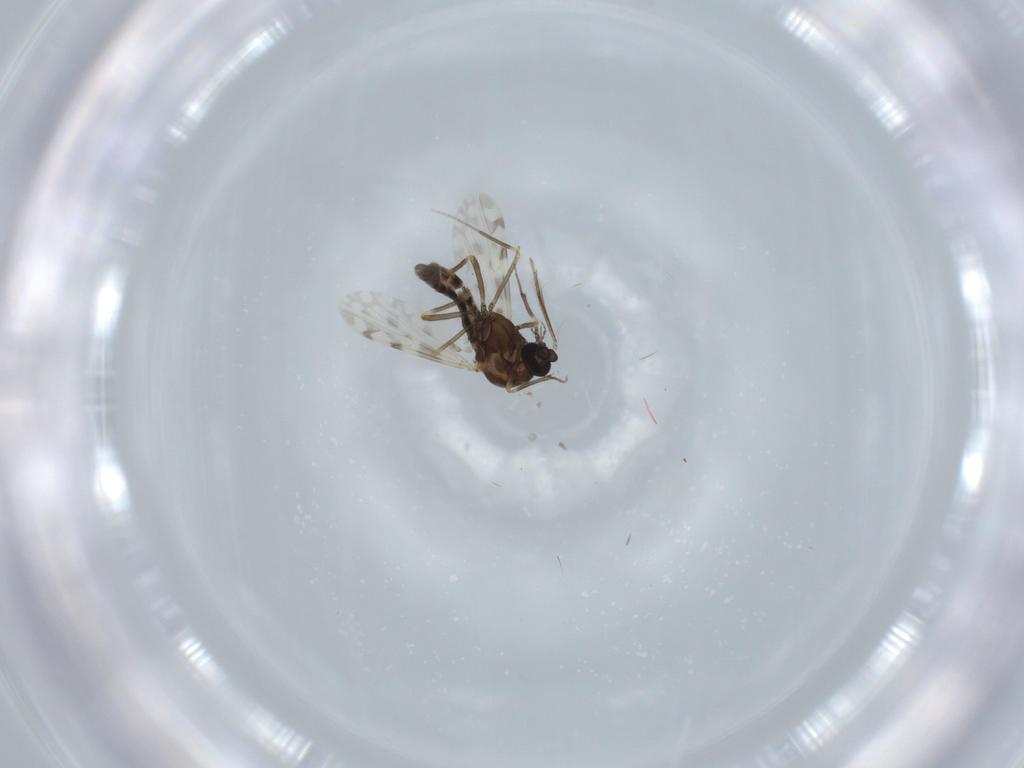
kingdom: Animalia
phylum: Arthropoda
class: Insecta
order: Diptera
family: Ceratopogonidae
